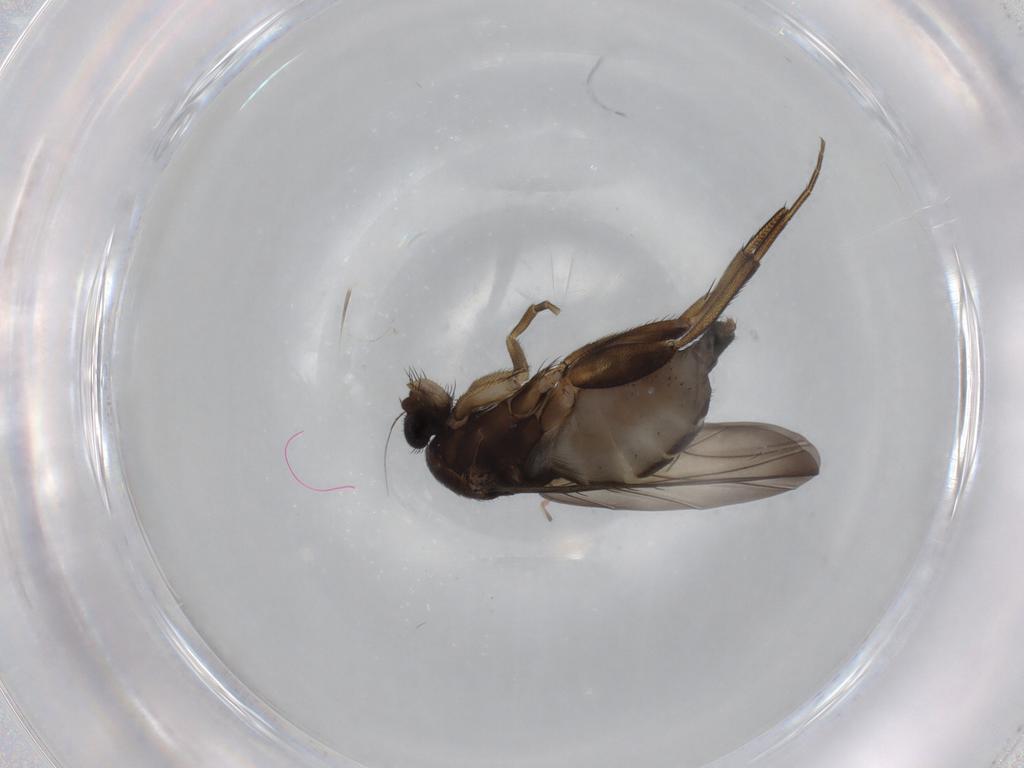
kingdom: Animalia
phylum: Arthropoda
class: Insecta
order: Diptera
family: Phoridae
